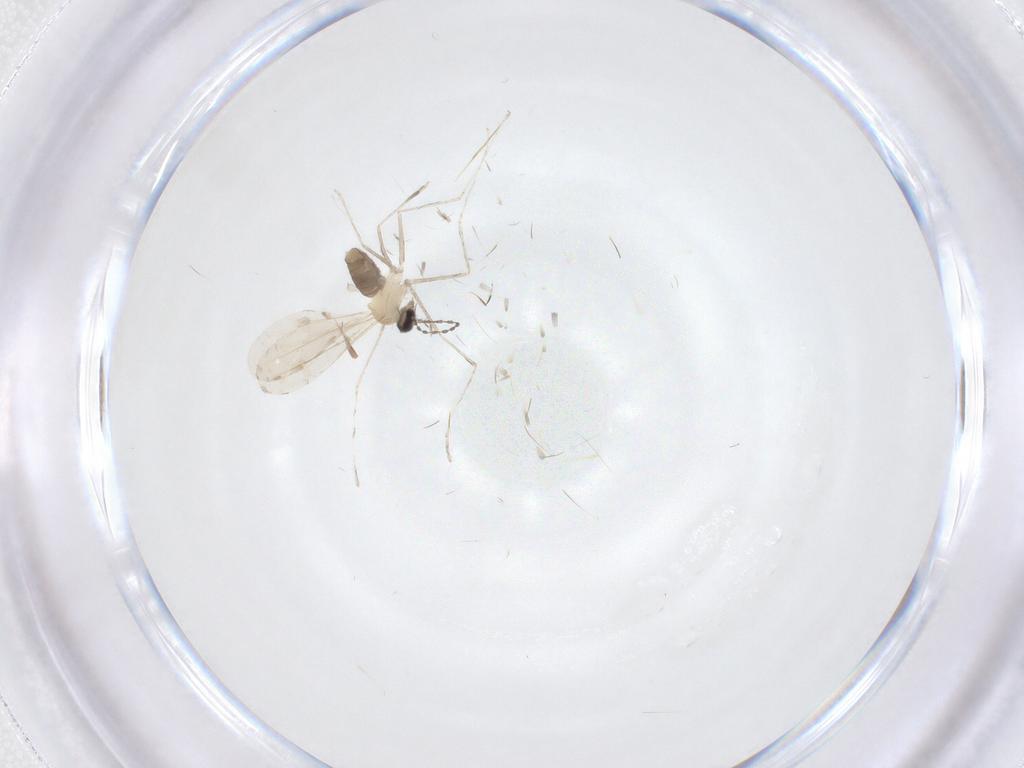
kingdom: Animalia
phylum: Arthropoda
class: Insecta
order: Diptera
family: Cecidomyiidae
